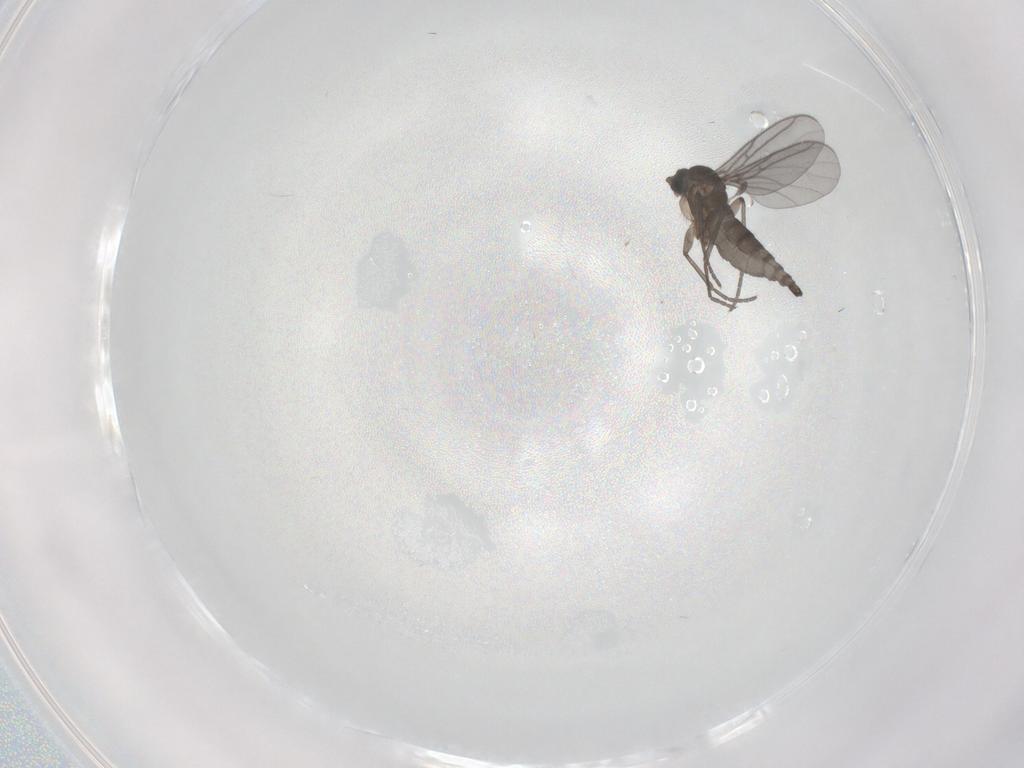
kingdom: Animalia
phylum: Arthropoda
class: Insecta
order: Diptera
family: Sciaridae
